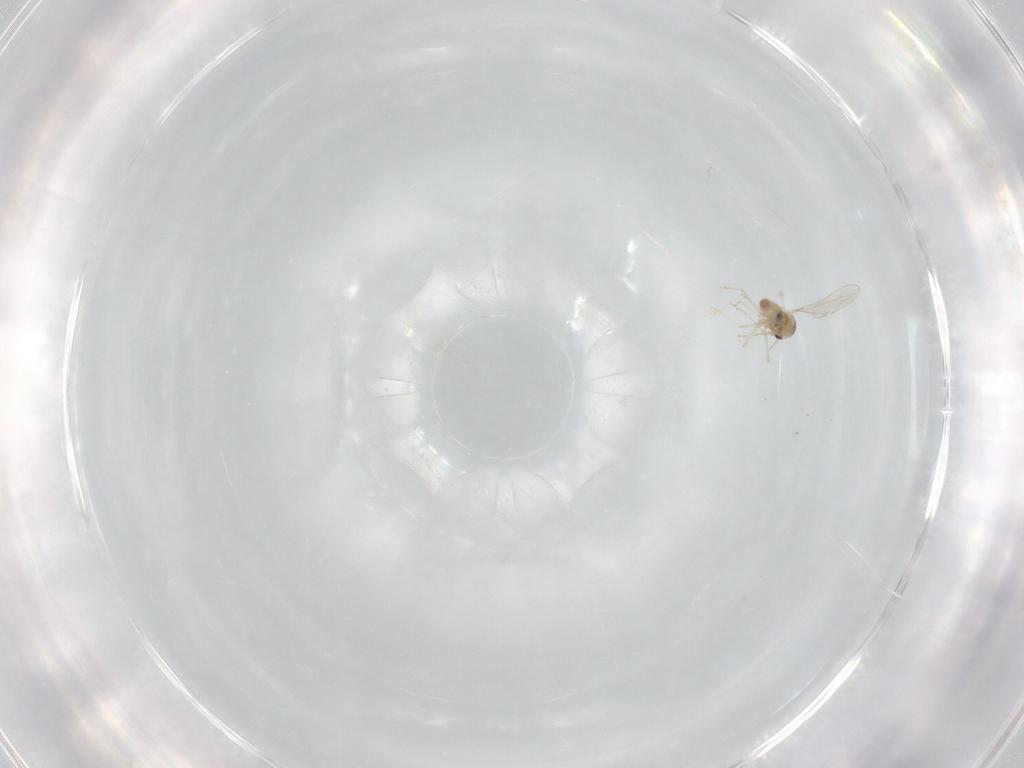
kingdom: Animalia
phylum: Arthropoda
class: Insecta
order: Diptera
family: Cecidomyiidae
